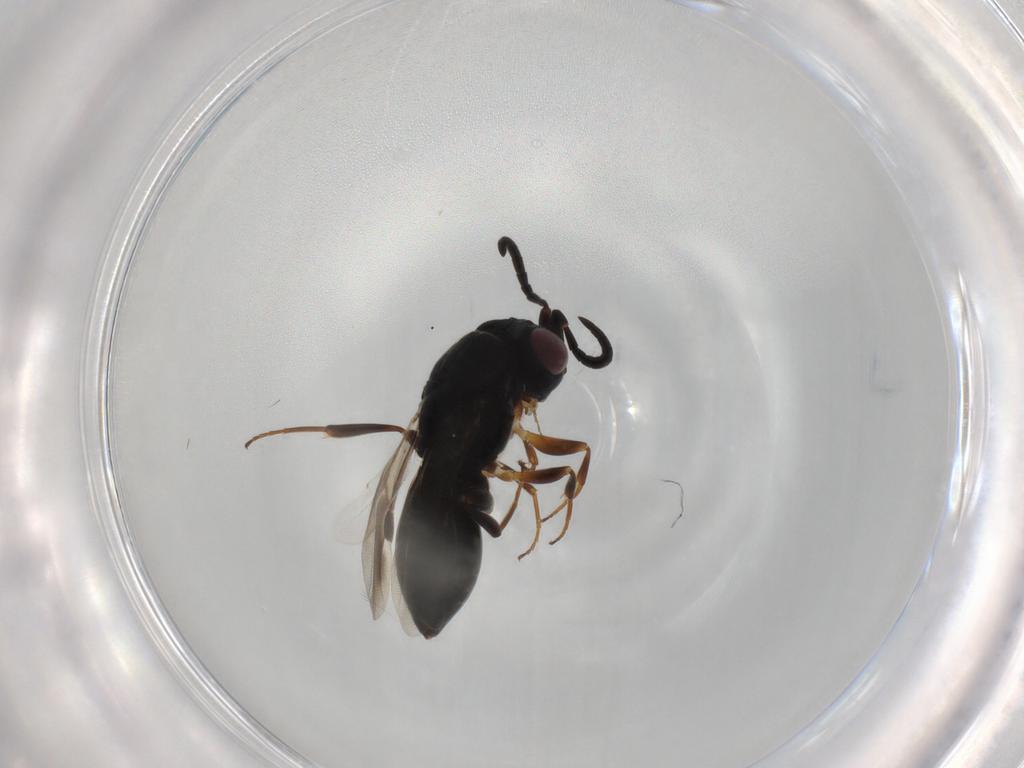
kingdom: Animalia
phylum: Arthropoda
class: Insecta
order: Hymenoptera
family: Megaspilidae
